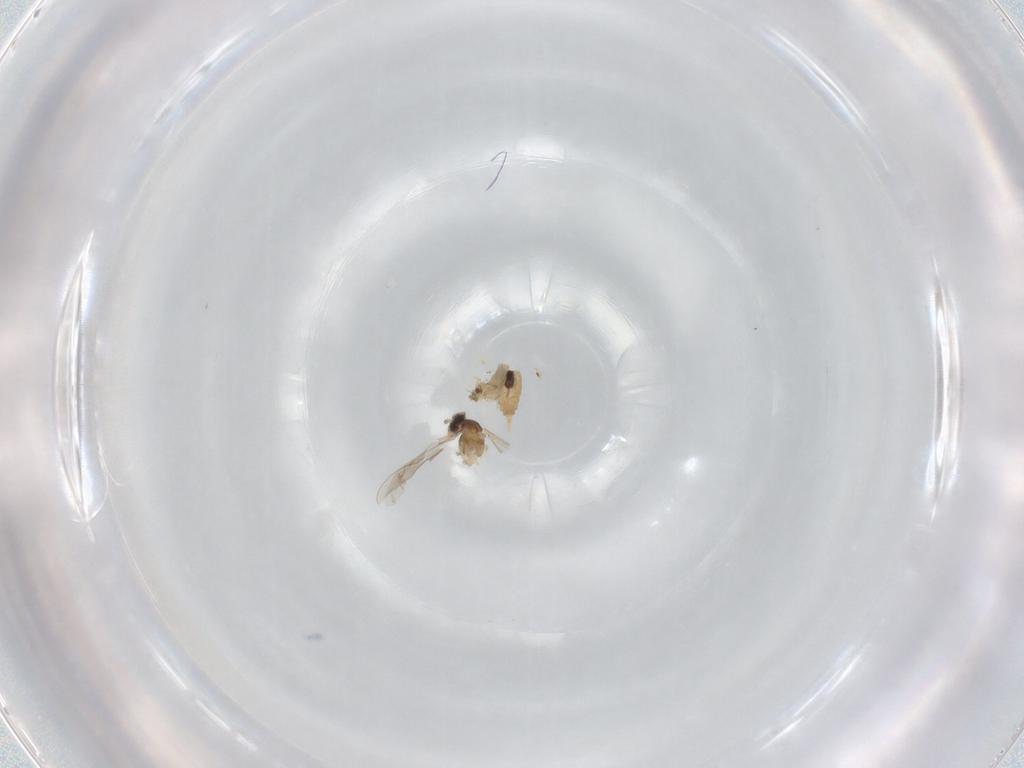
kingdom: Animalia
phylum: Arthropoda
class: Insecta
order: Diptera
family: Cecidomyiidae
